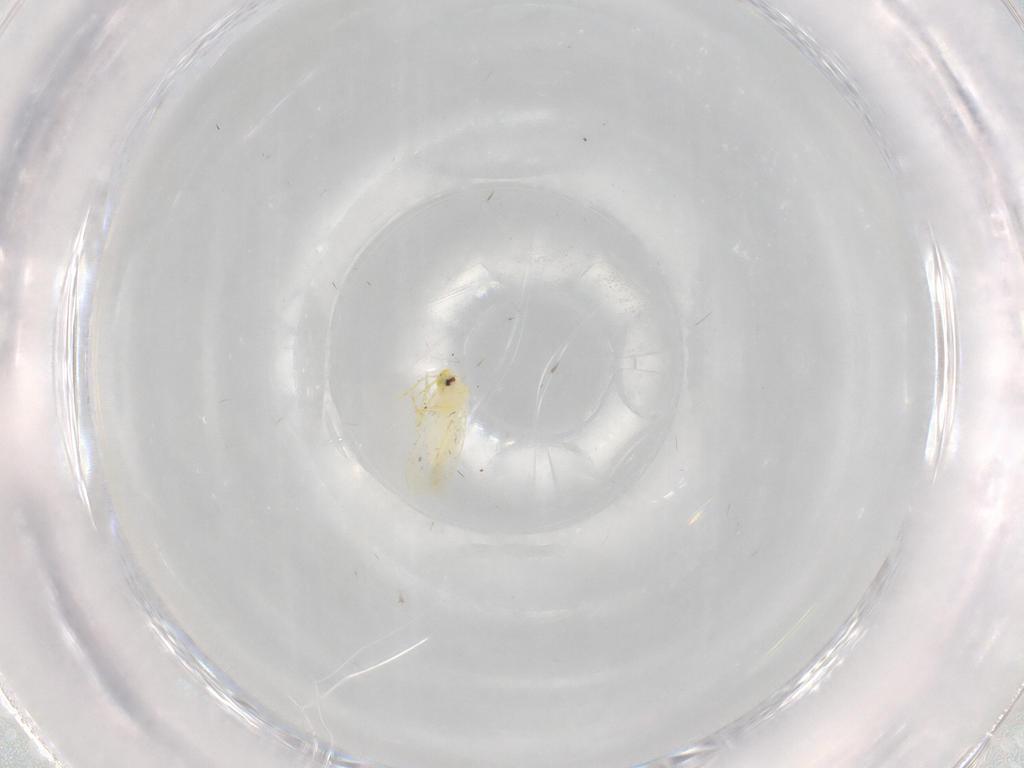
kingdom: Animalia
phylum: Arthropoda
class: Insecta
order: Hemiptera
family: Aleyrodidae
